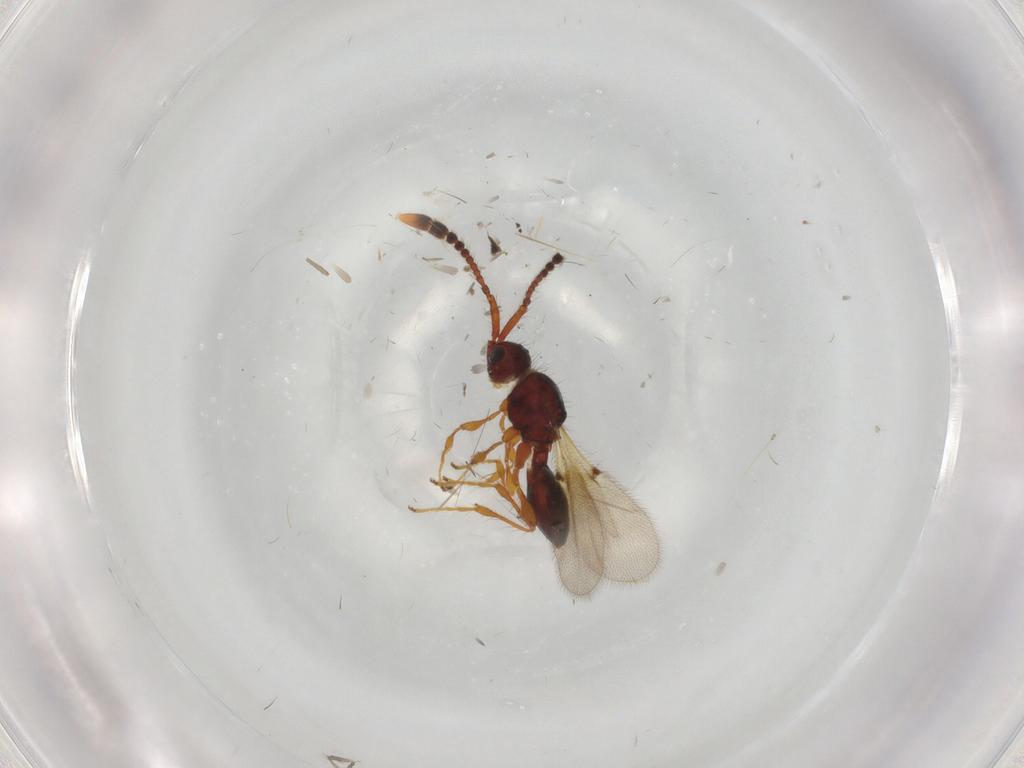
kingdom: Animalia
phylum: Arthropoda
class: Insecta
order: Hymenoptera
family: Diapriidae
